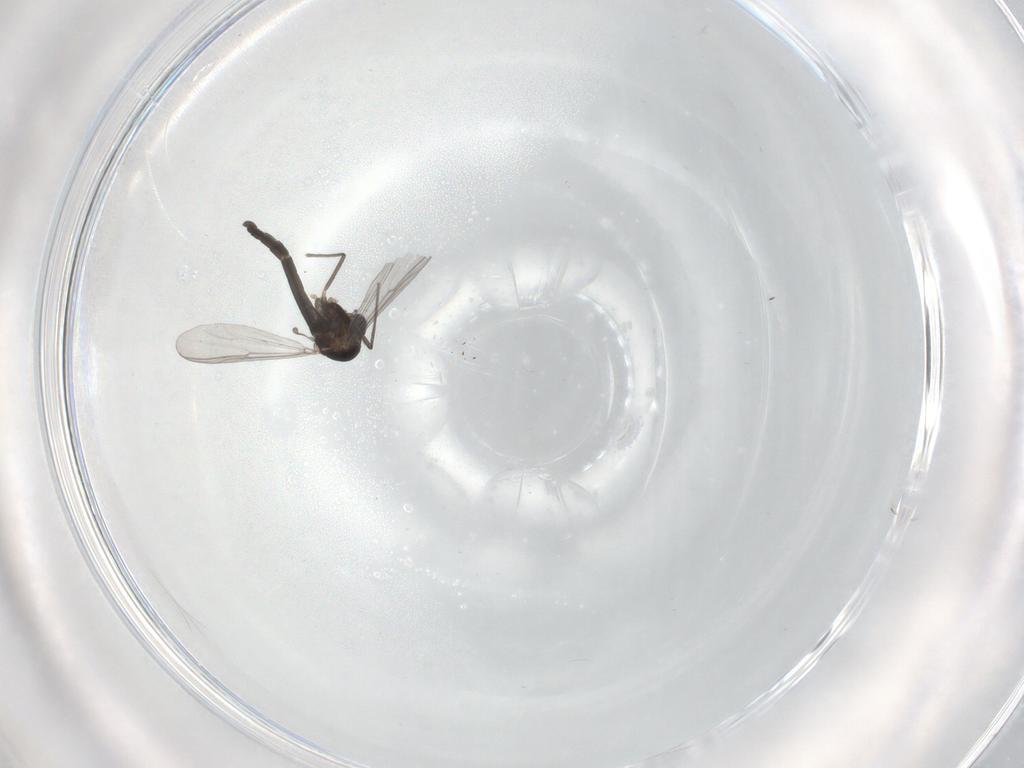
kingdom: Animalia
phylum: Arthropoda
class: Insecta
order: Diptera
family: Chironomidae
